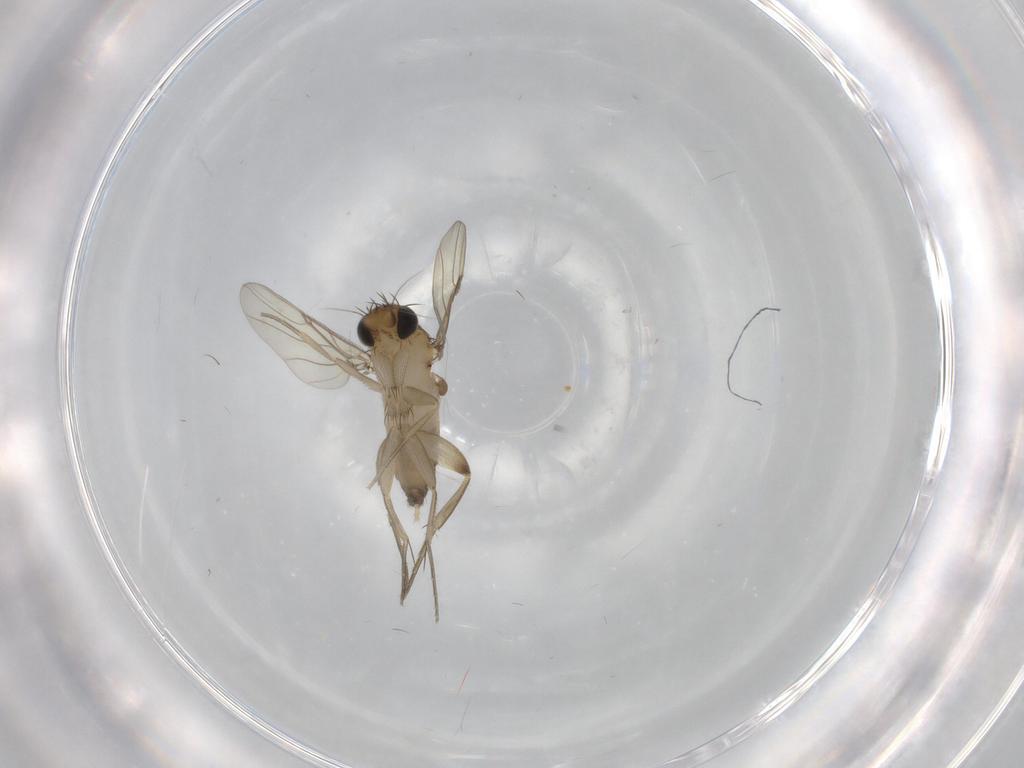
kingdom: Animalia
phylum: Arthropoda
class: Insecta
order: Diptera
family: Phoridae
